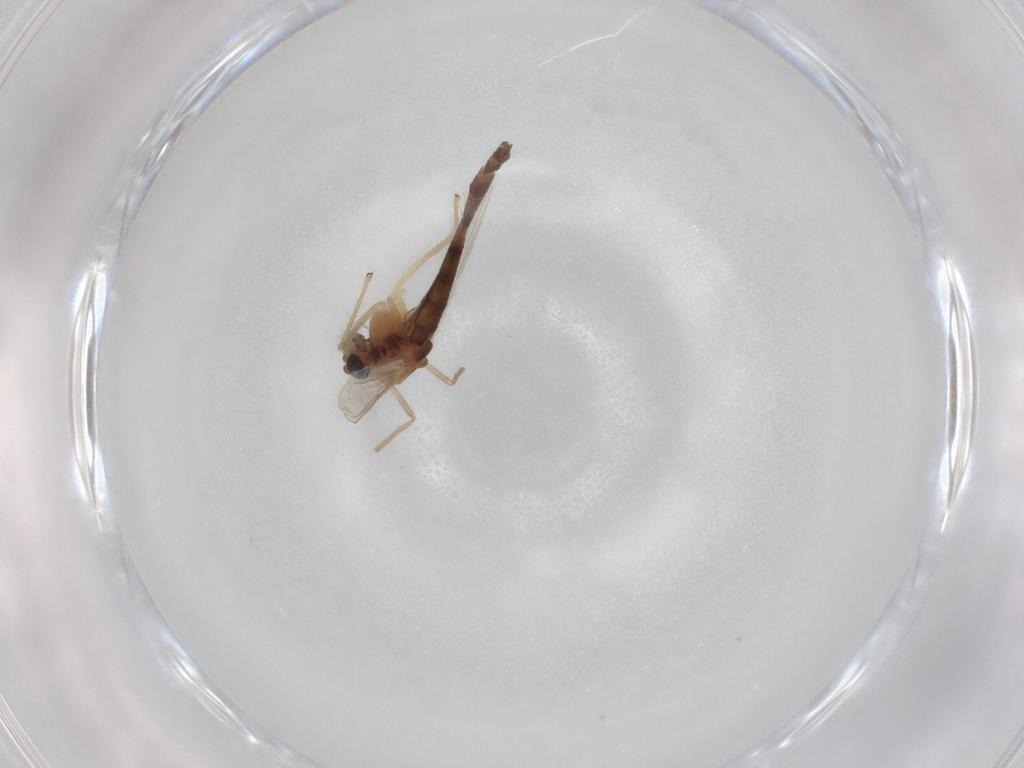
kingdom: Animalia
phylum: Arthropoda
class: Insecta
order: Diptera
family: Chironomidae
